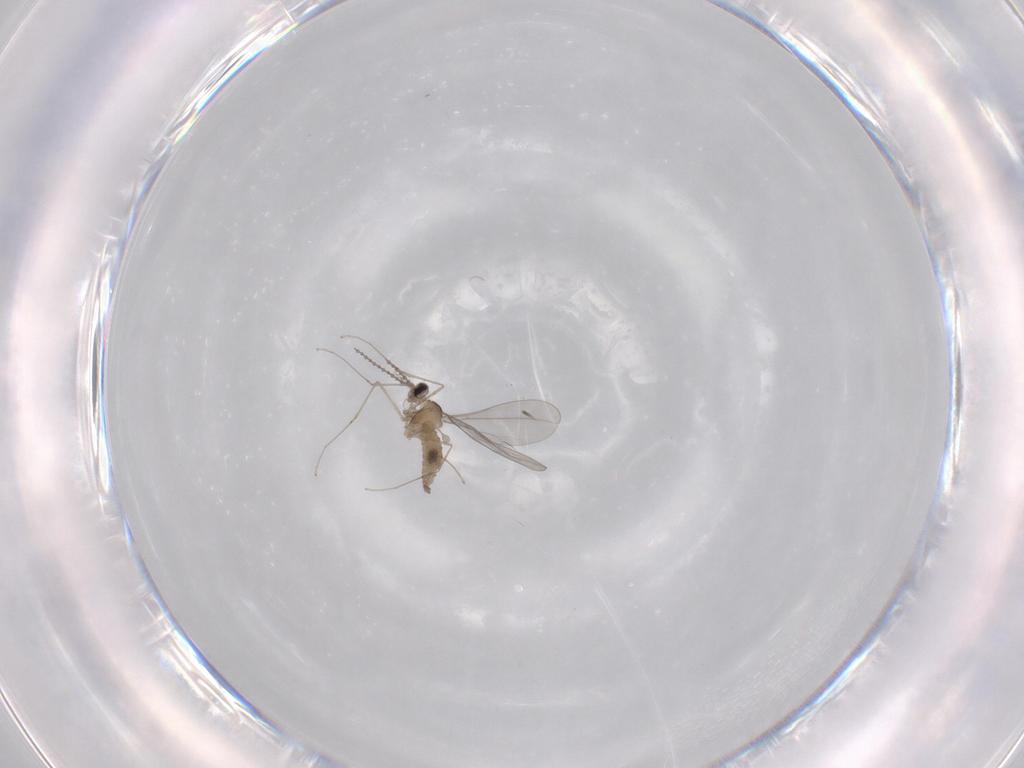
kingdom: Animalia
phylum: Arthropoda
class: Insecta
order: Diptera
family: Cecidomyiidae
